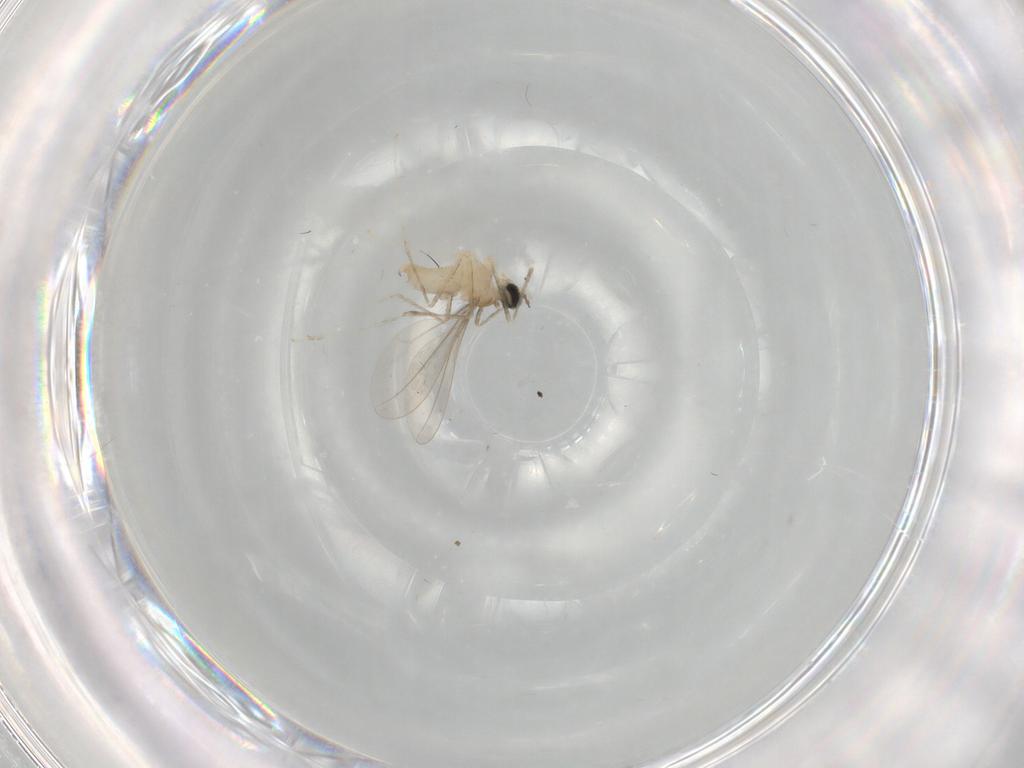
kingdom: Animalia
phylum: Arthropoda
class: Insecta
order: Diptera
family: Cecidomyiidae
